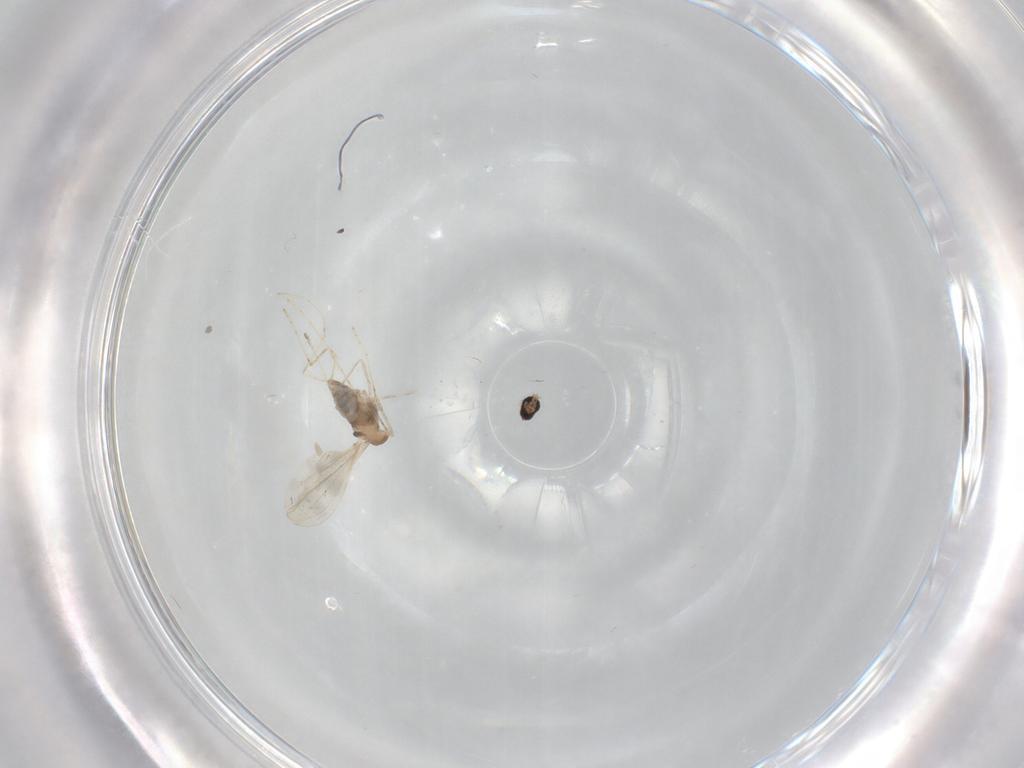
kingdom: Animalia
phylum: Arthropoda
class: Insecta
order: Diptera
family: Cecidomyiidae
